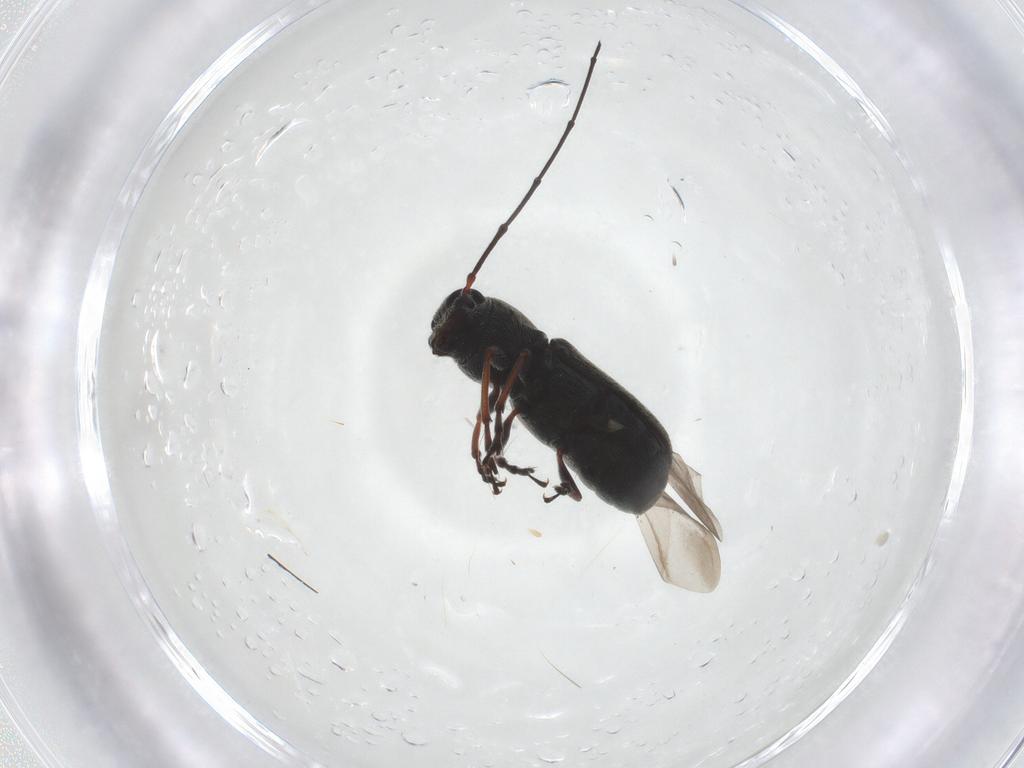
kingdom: Animalia
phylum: Arthropoda
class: Insecta
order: Coleoptera
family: Anthribidae
